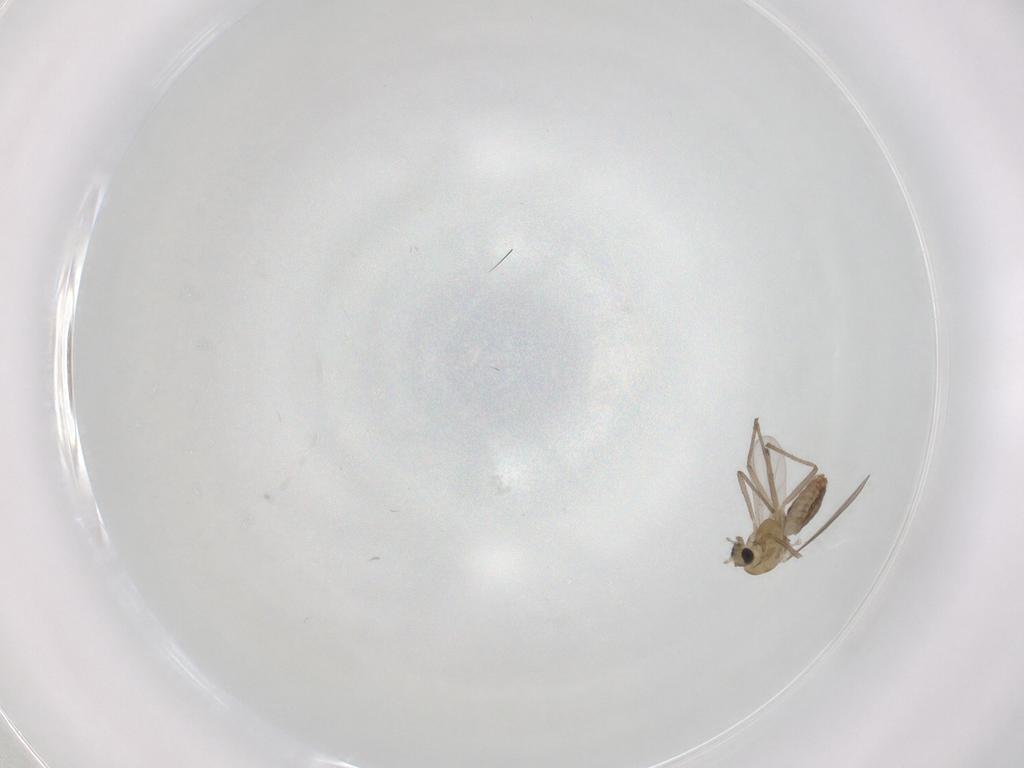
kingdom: Animalia
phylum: Arthropoda
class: Insecta
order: Diptera
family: Chironomidae
